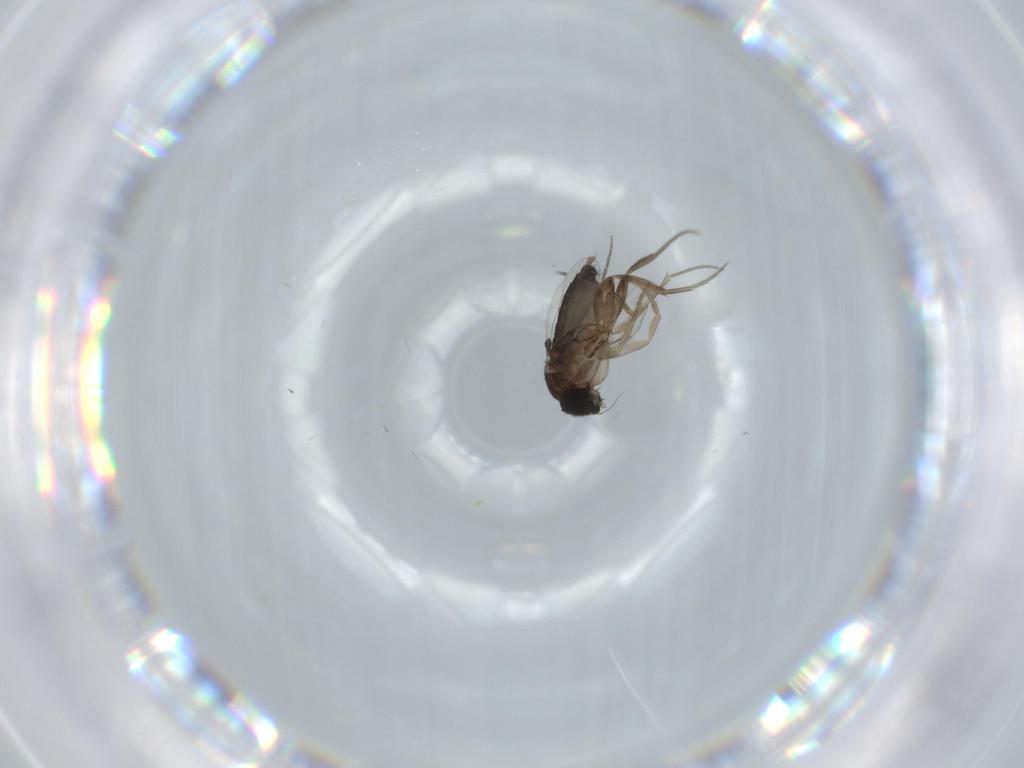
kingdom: Animalia
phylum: Arthropoda
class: Insecta
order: Diptera
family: Phoridae
